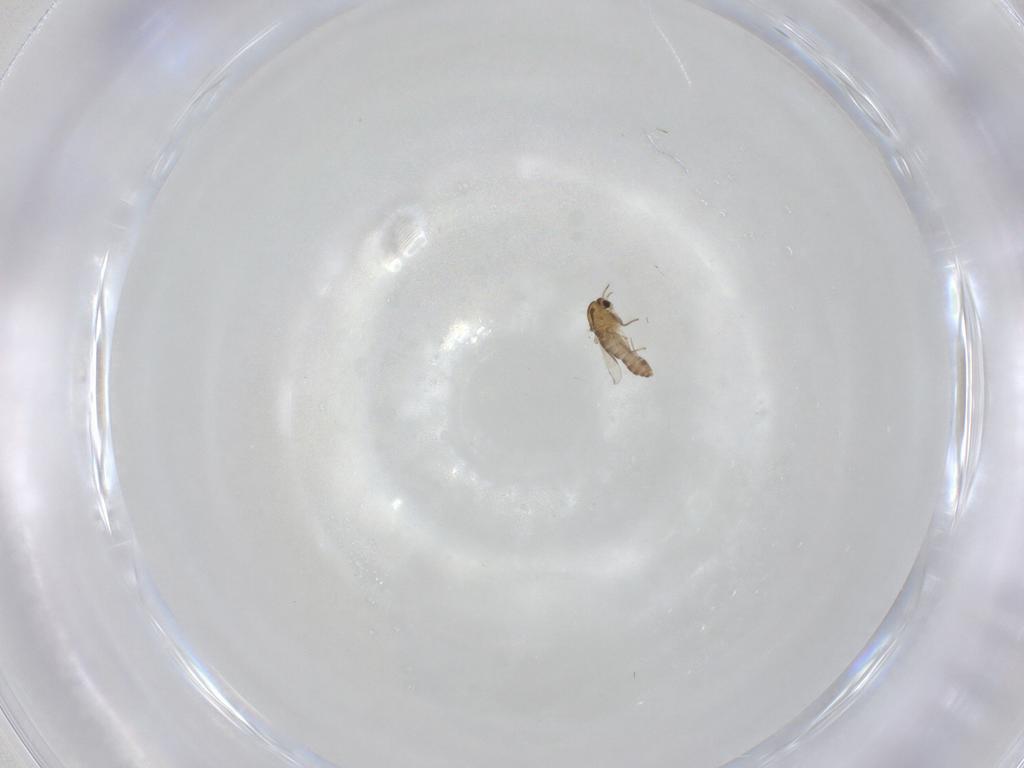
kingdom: Animalia
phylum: Arthropoda
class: Insecta
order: Diptera
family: Chironomidae
